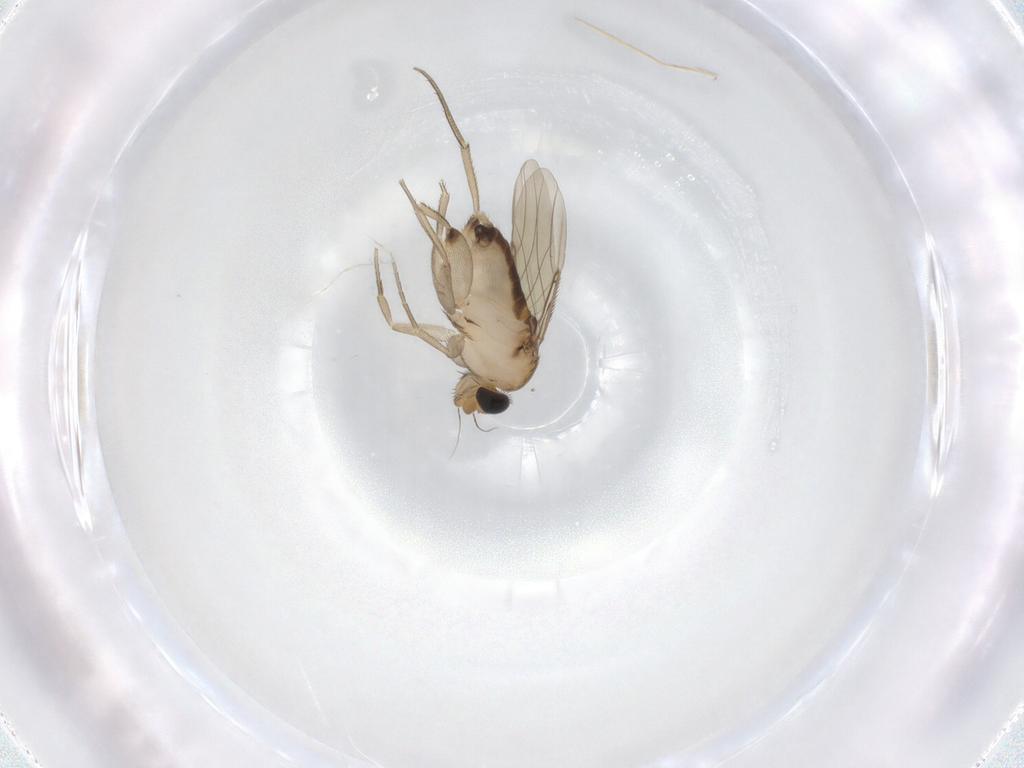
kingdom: Animalia
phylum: Arthropoda
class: Insecta
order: Diptera
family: Phoridae
